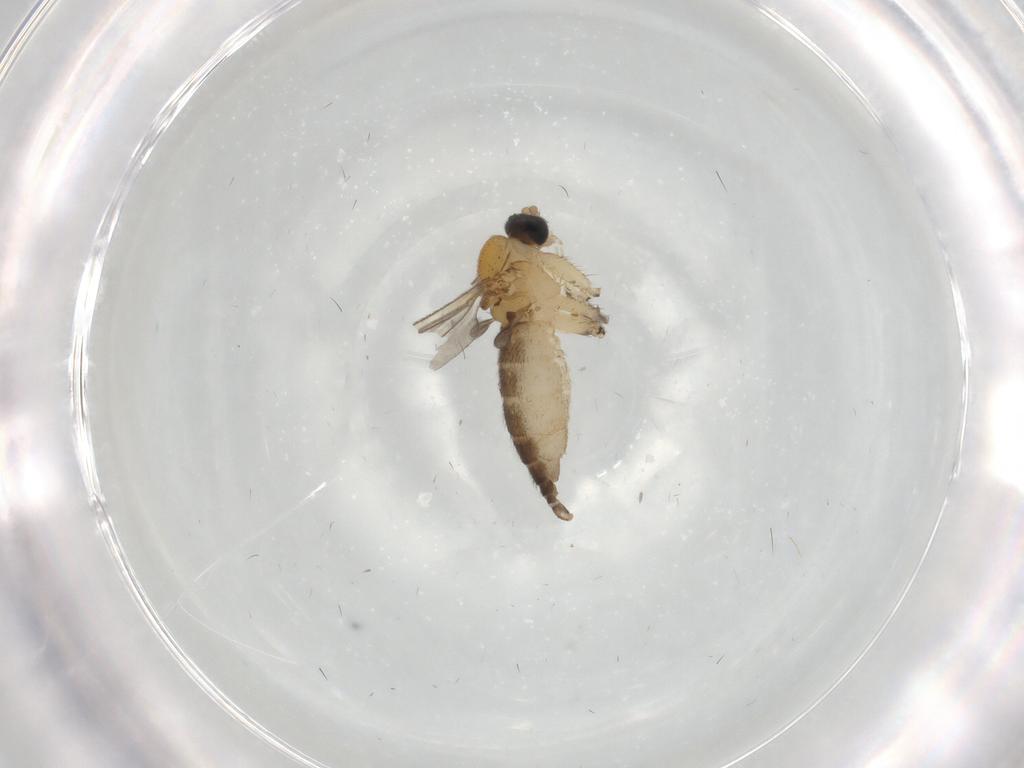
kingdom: Animalia
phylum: Arthropoda
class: Insecta
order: Diptera
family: Sciaridae
